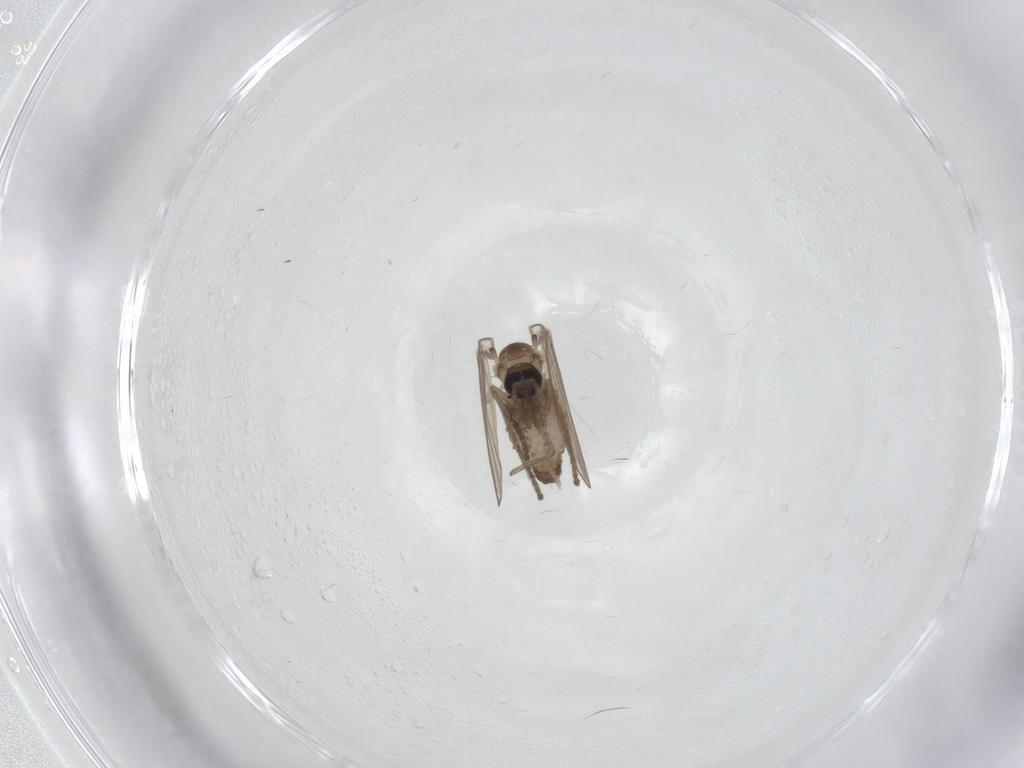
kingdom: Animalia
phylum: Arthropoda
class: Insecta
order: Diptera
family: Psychodidae
